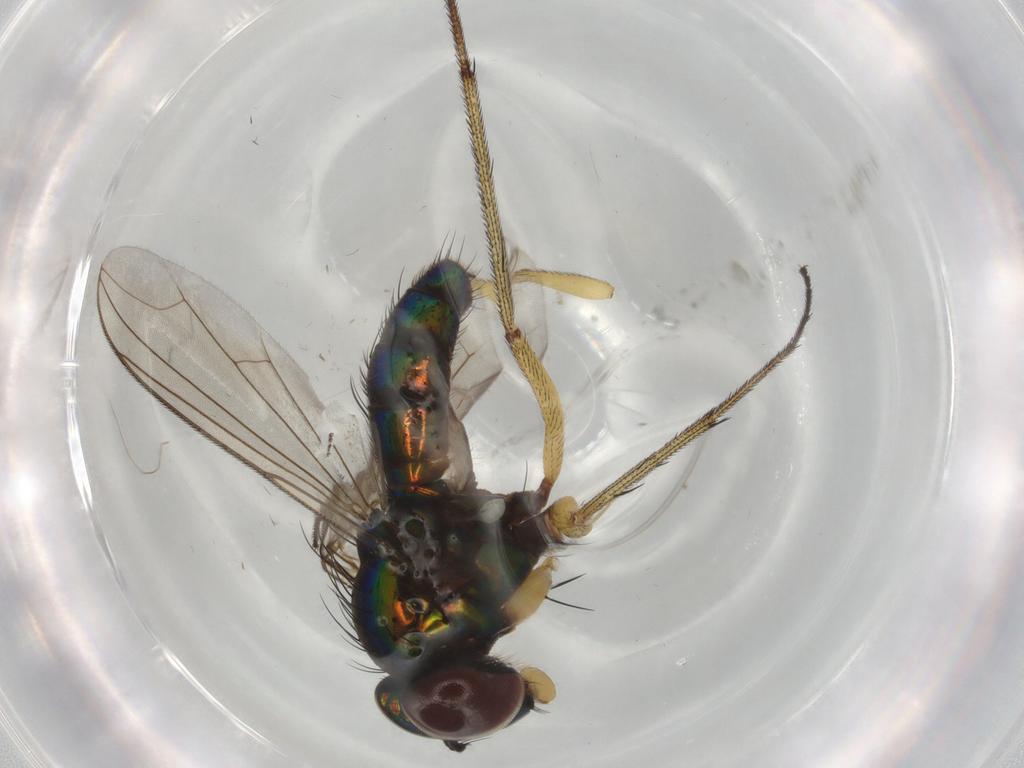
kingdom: Animalia
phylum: Arthropoda
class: Insecta
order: Diptera
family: Dolichopodidae
